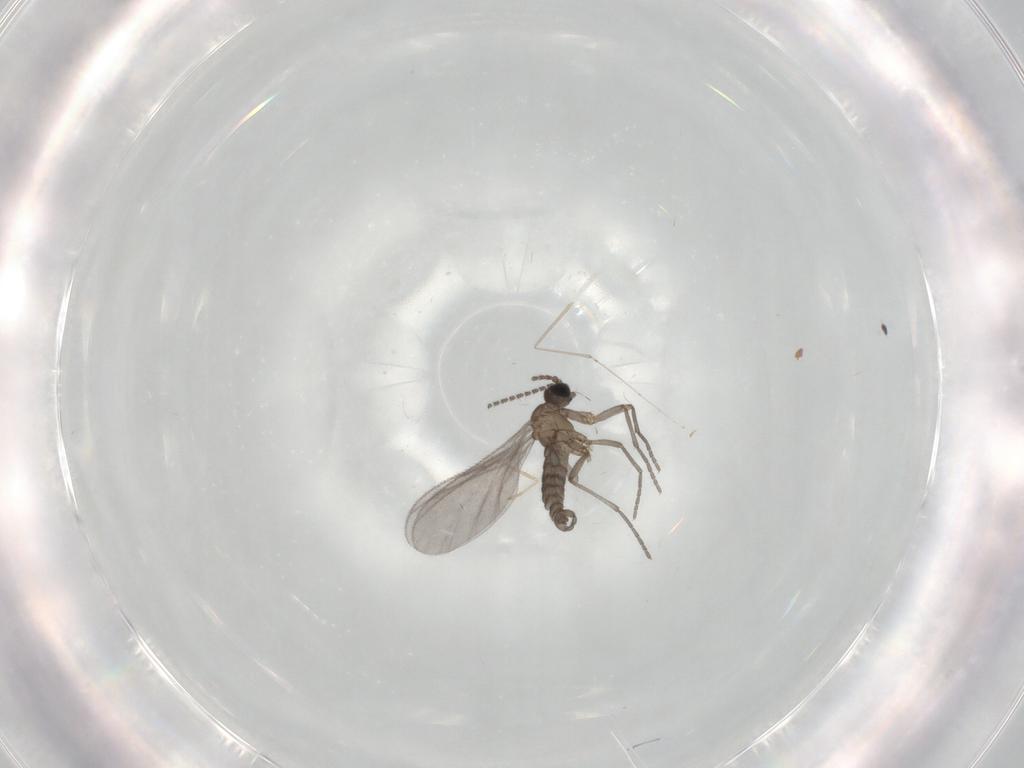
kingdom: Animalia
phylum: Arthropoda
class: Insecta
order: Diptera
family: Sciaridae
